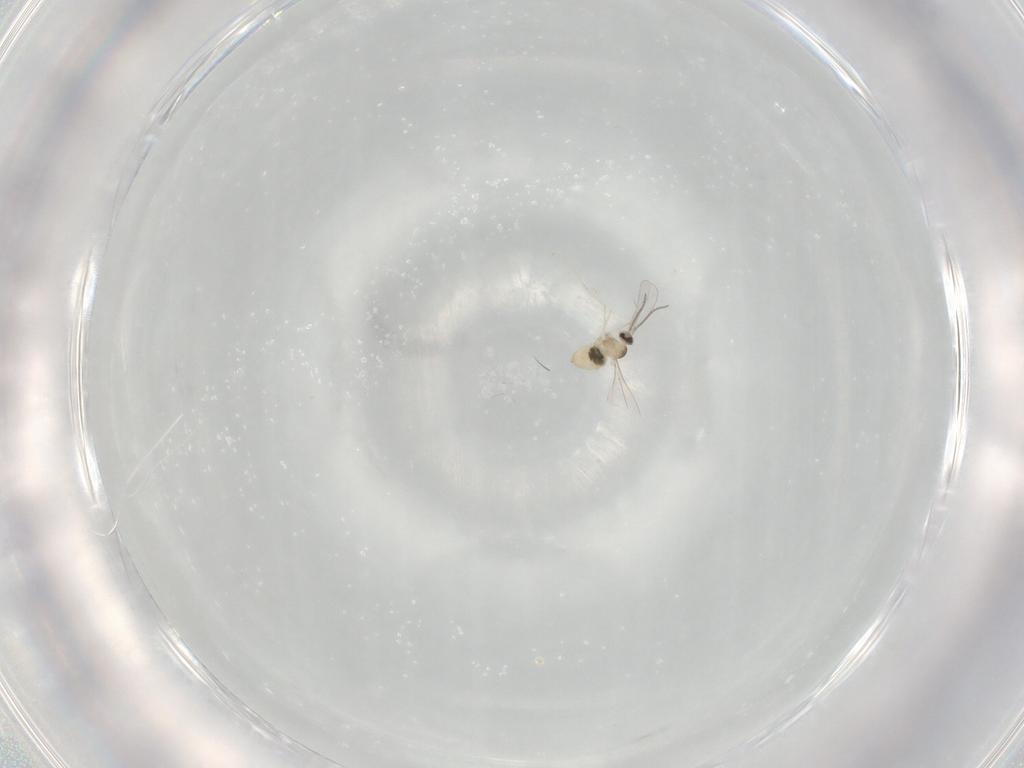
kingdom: Animalia
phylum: Arthropoda
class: Insecta
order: Diptera
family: Cecidomyiidae
